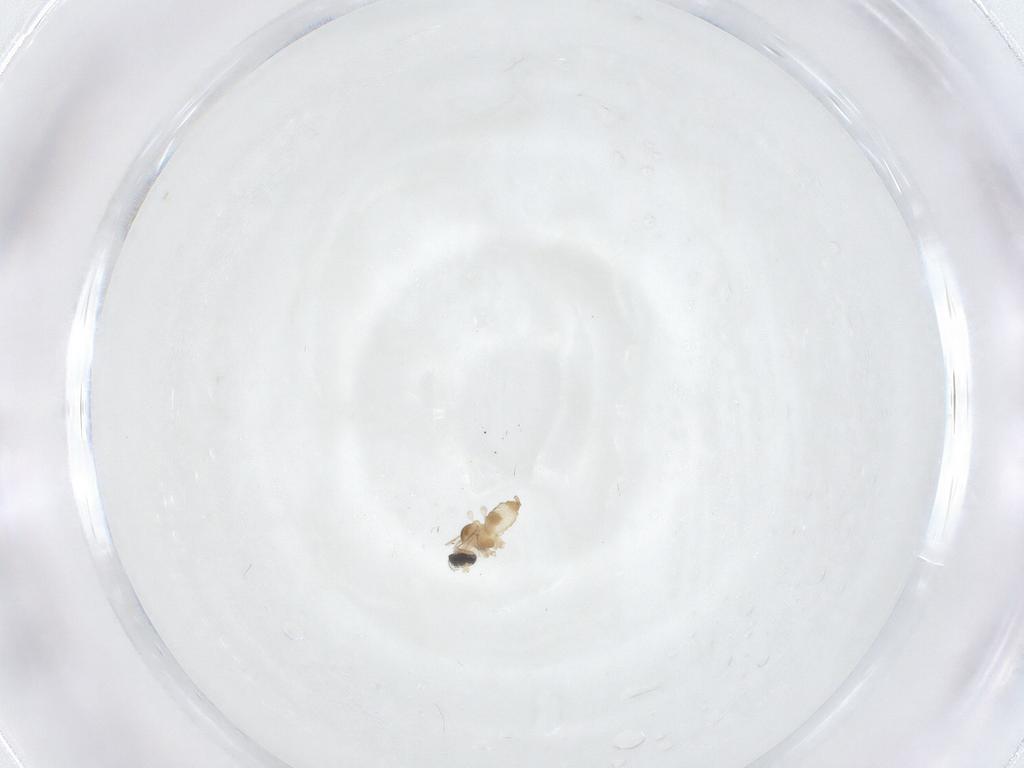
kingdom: Animalia
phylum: Arthropoda
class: Insecta
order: Diptera
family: Cecidomyiidae
